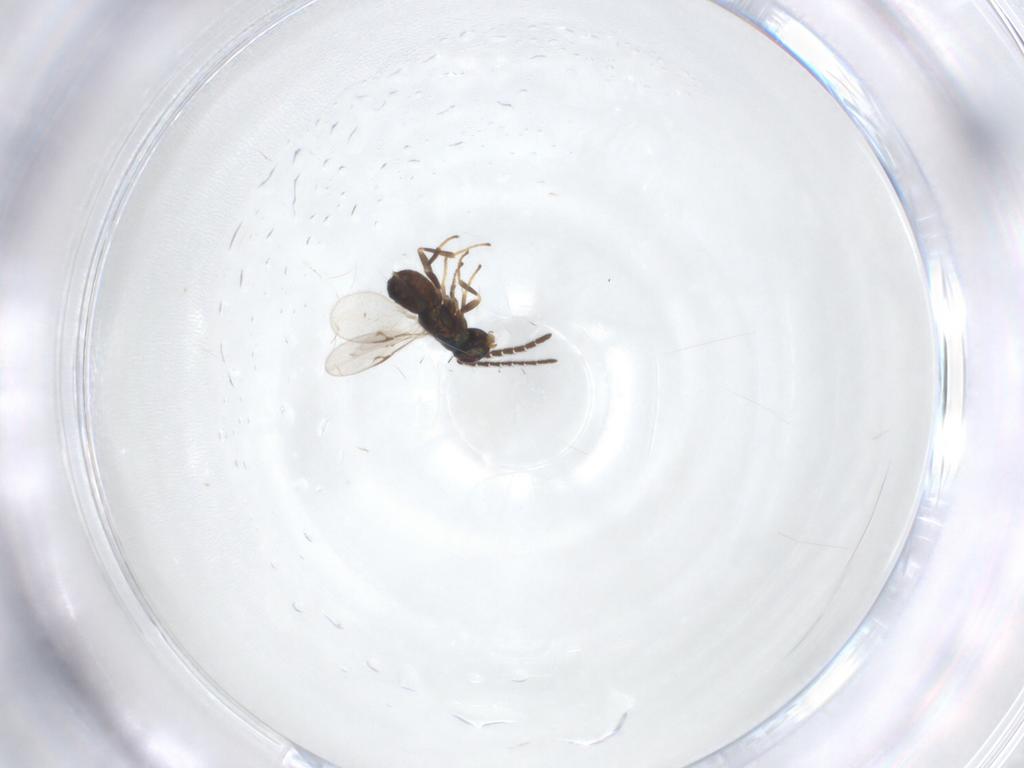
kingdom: Animalia
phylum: Arthropoda
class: Insecta
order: Hymenoptera
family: Encyrtidae
